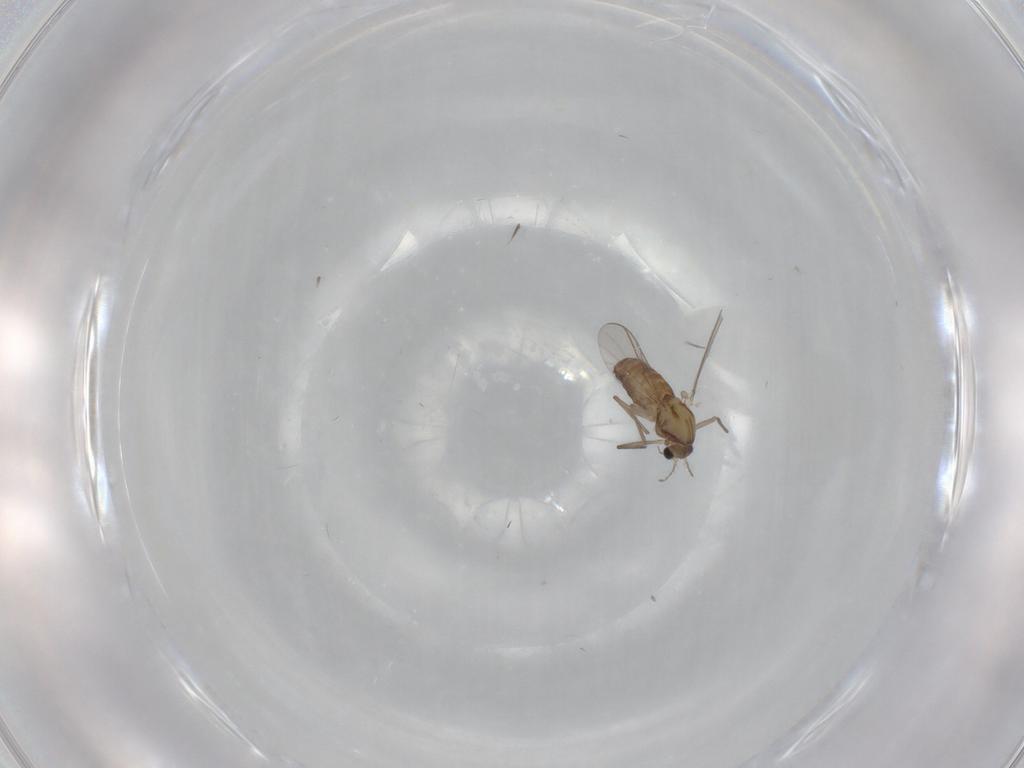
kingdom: Animalia
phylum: Arthropoda
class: Insecta
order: Diptera
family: Chironomidae
